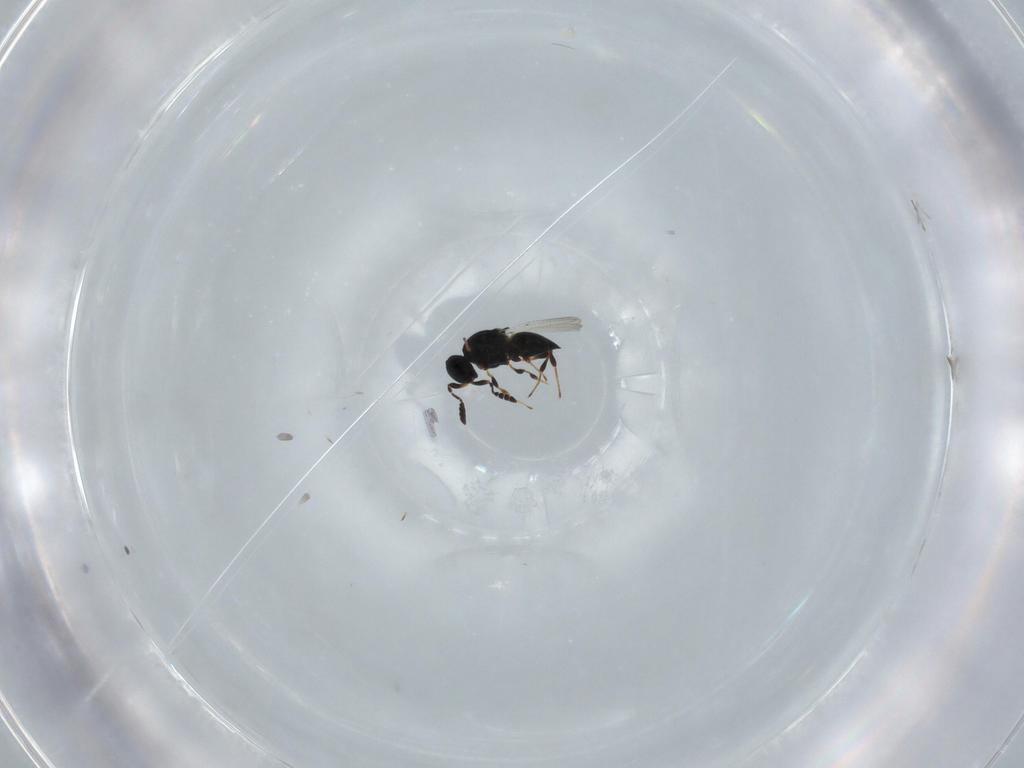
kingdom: Animalia
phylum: Arthropoda
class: Insecta
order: Hymenoptera
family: Platygastridae
